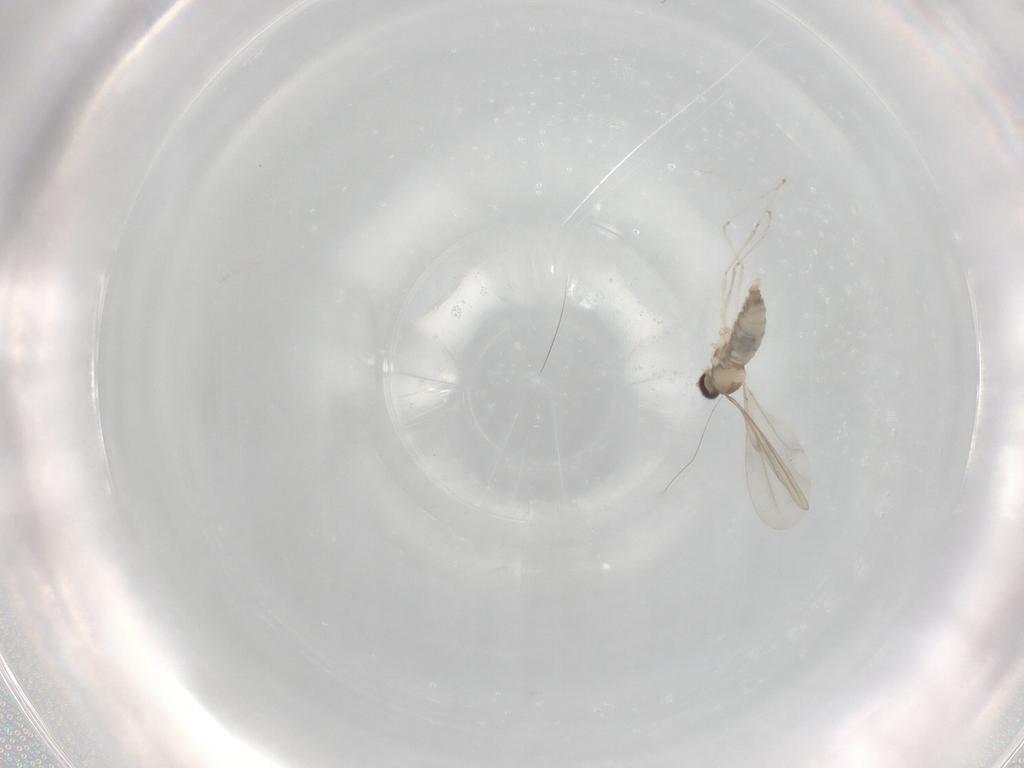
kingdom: Animalia
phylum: Arthropoda
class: Insecta
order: Diptera
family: Cecidomyiidae
